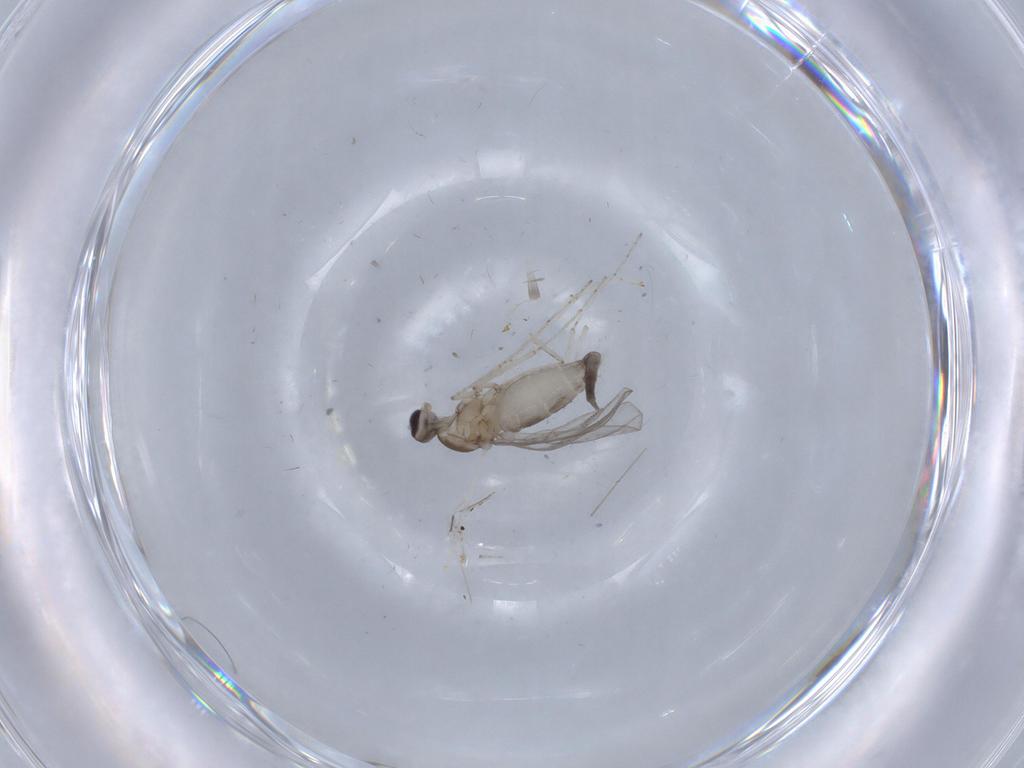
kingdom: Animalia
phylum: Arthropoda
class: Insecta
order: Diptera
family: Cecidomyiidae
